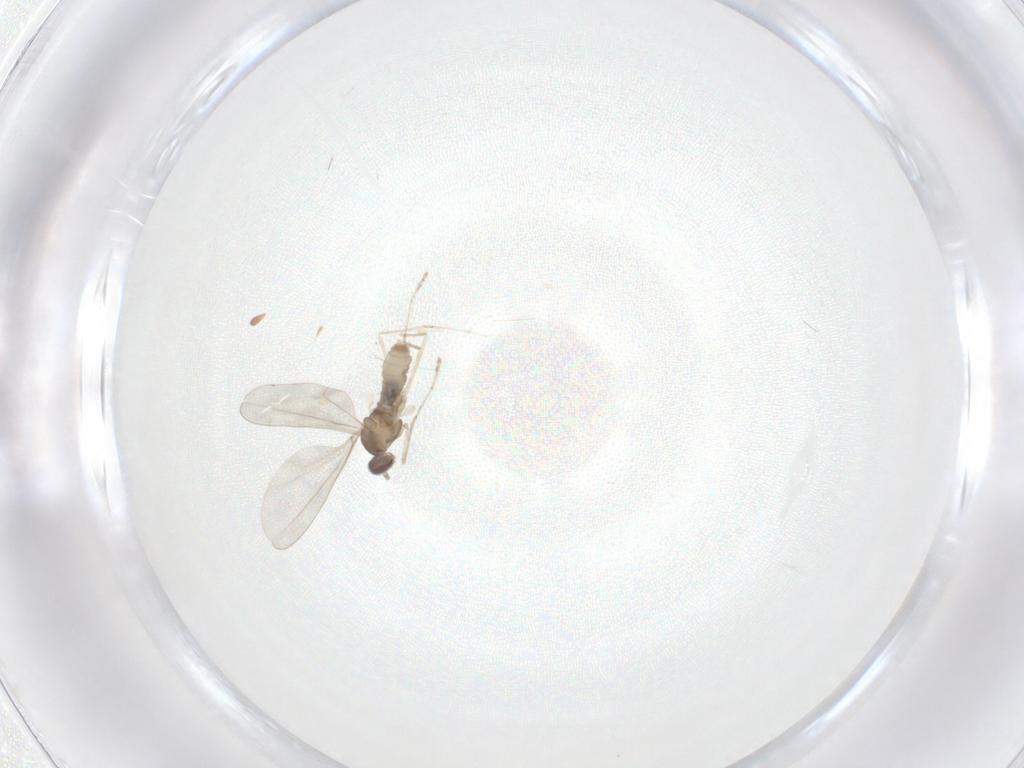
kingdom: Animalia
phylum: Arthropoda
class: Insecta
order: Diptera
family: Cecidomyiidae
